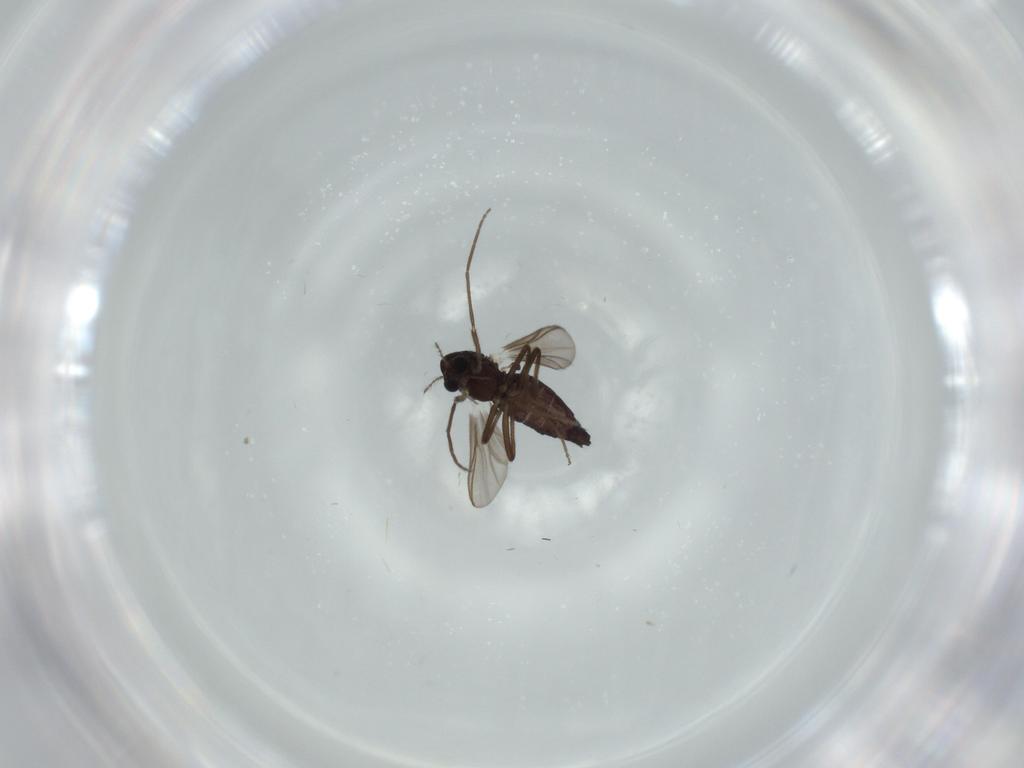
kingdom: Animalia
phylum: Arthropoda
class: Insecta
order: Diptera
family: Chironomidae
